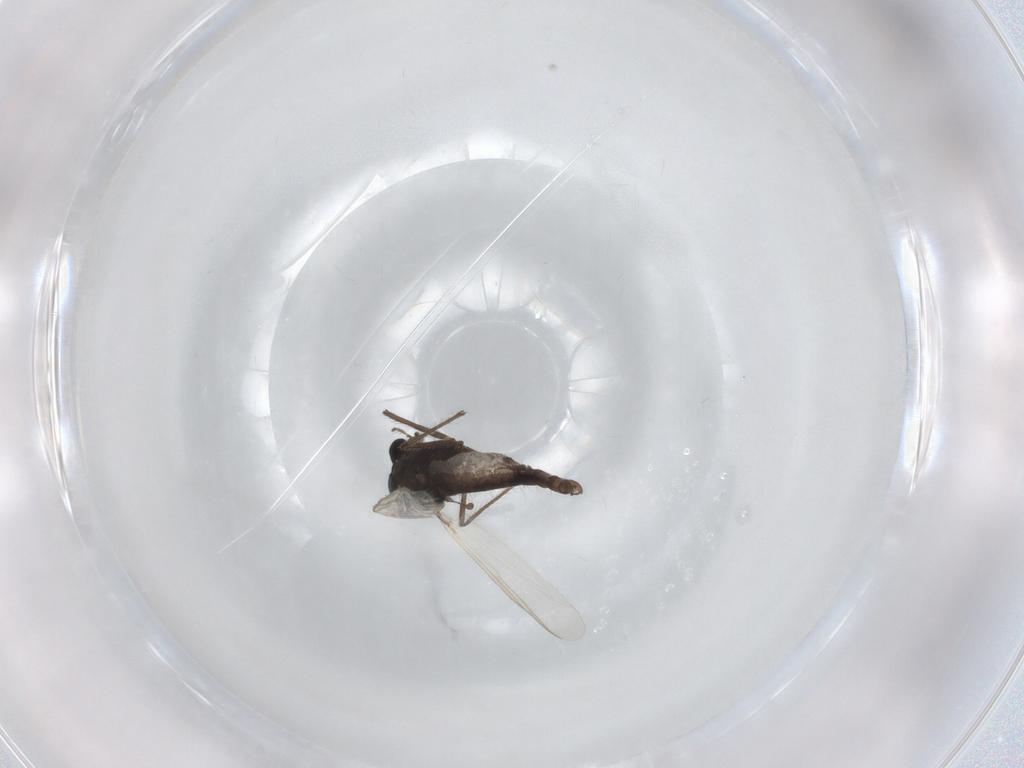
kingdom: Animalia
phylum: Arthropoda
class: Insecta
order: Diptera
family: Chironomidae
